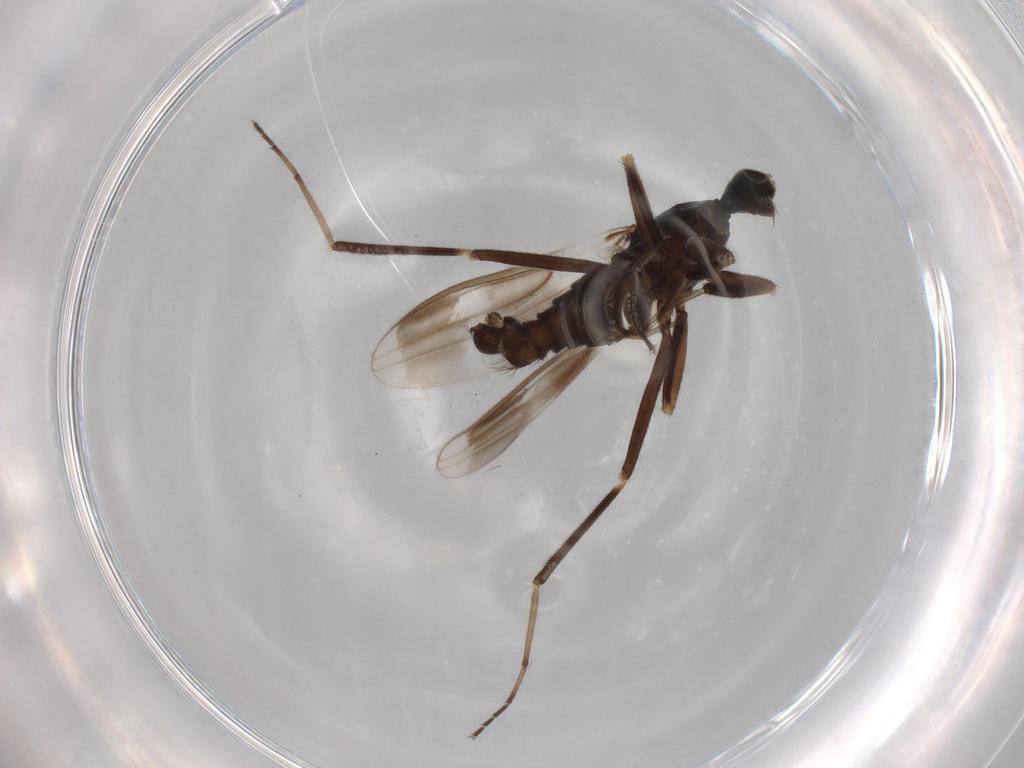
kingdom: Animalia
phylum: Arthropoda
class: Insecta
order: Diptera
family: Hybotidae
